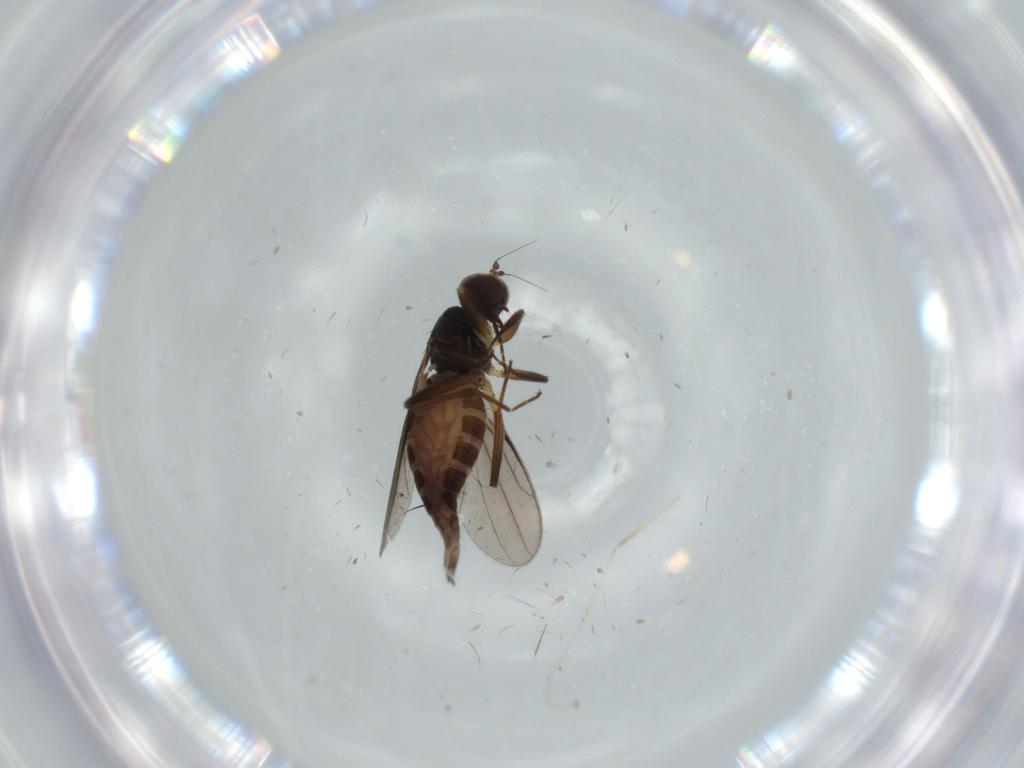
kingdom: Animalia
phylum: Arthropoda
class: Insecta
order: Diptera
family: Hybotidae
